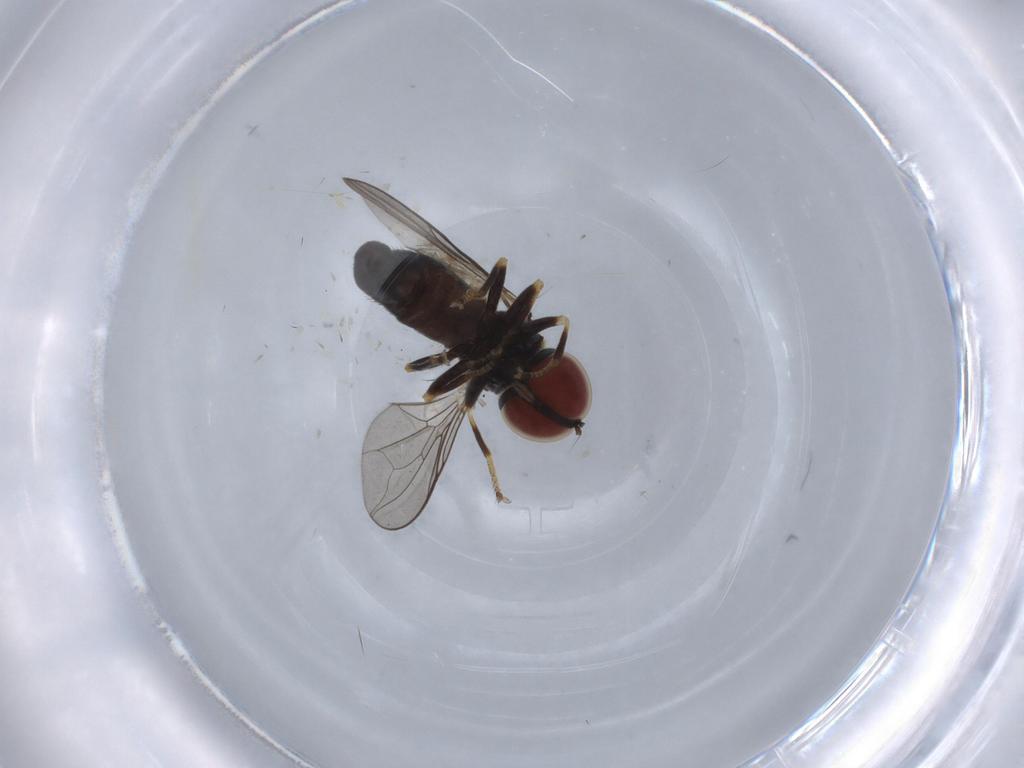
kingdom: Animalia
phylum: Arthropoda
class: Insecta
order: Diptera
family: Pipunculidae
